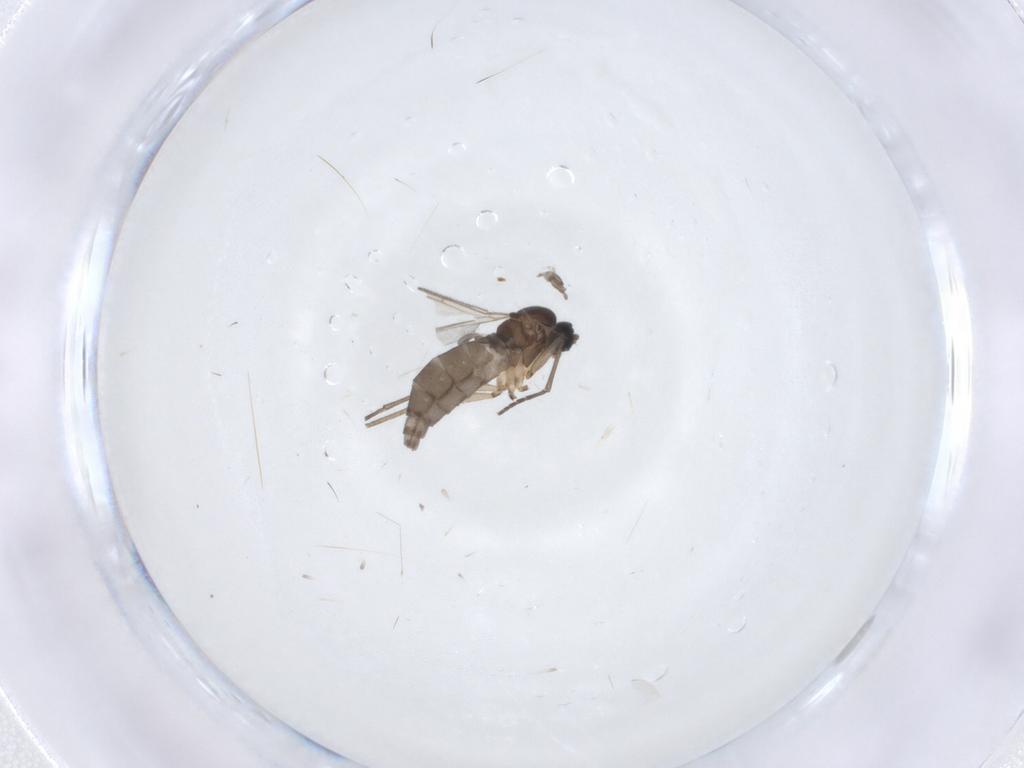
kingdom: Animalia
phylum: Arthropoda
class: Insecta
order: Diptera
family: Sciaridae
